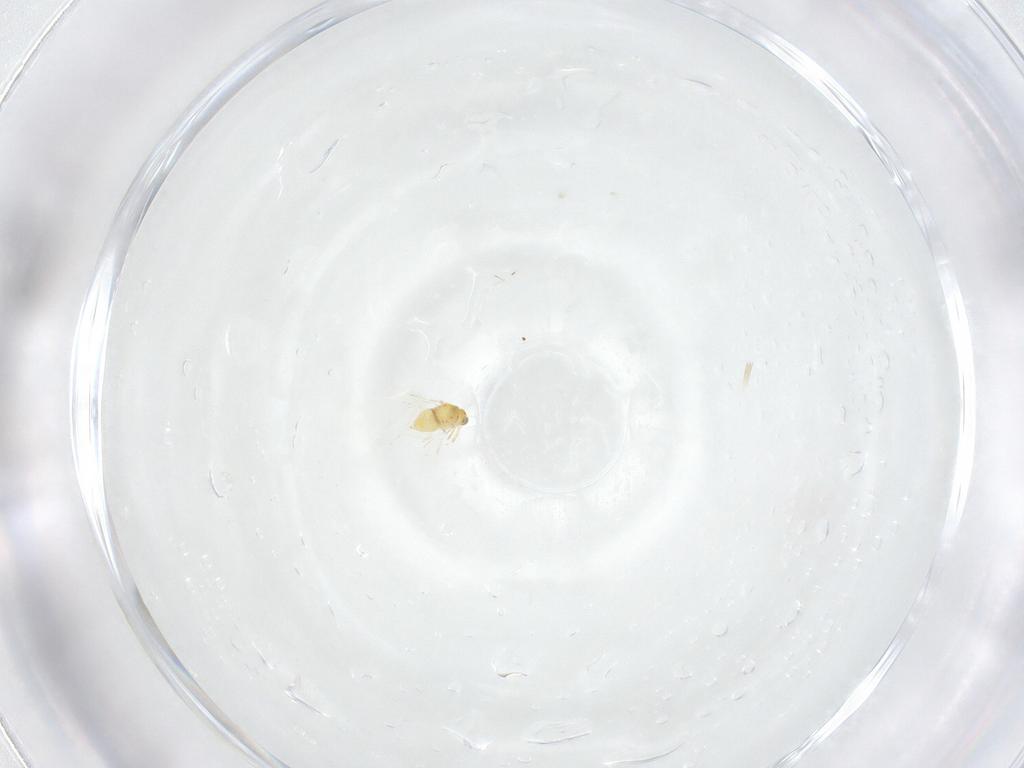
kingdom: Animalia
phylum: Arthropoda
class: Insecta
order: Hymenoptera
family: Aphelinidae
